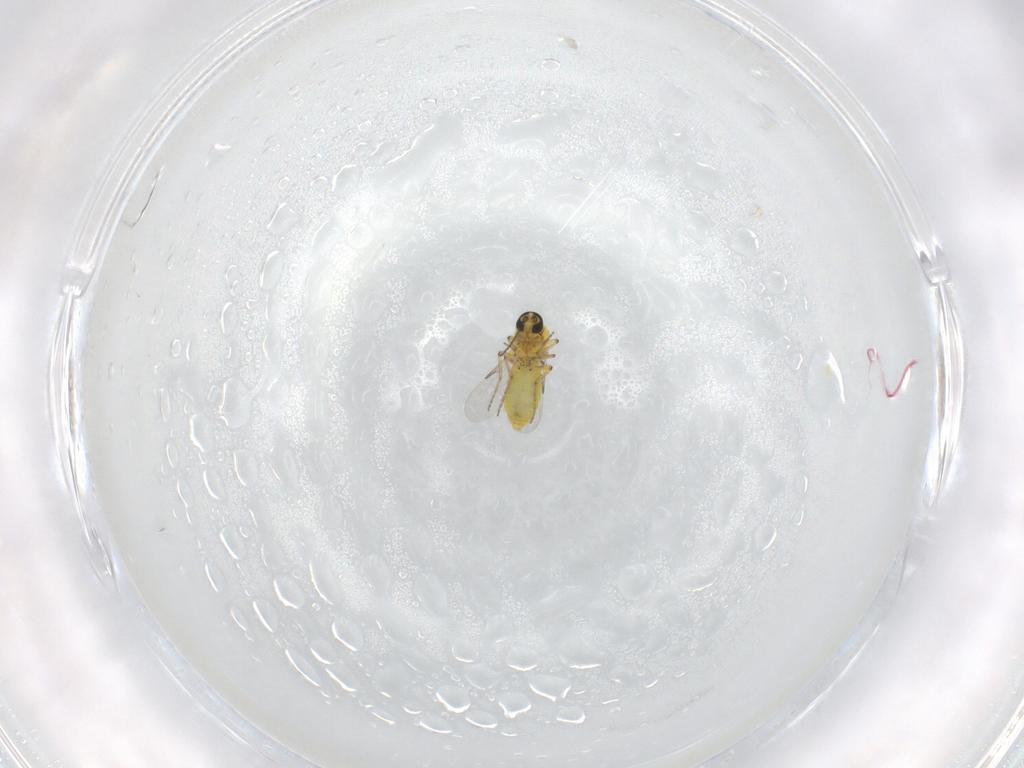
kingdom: Animalia
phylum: Arthropoda
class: Insecta
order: Diptera
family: Ceratopogonidae
